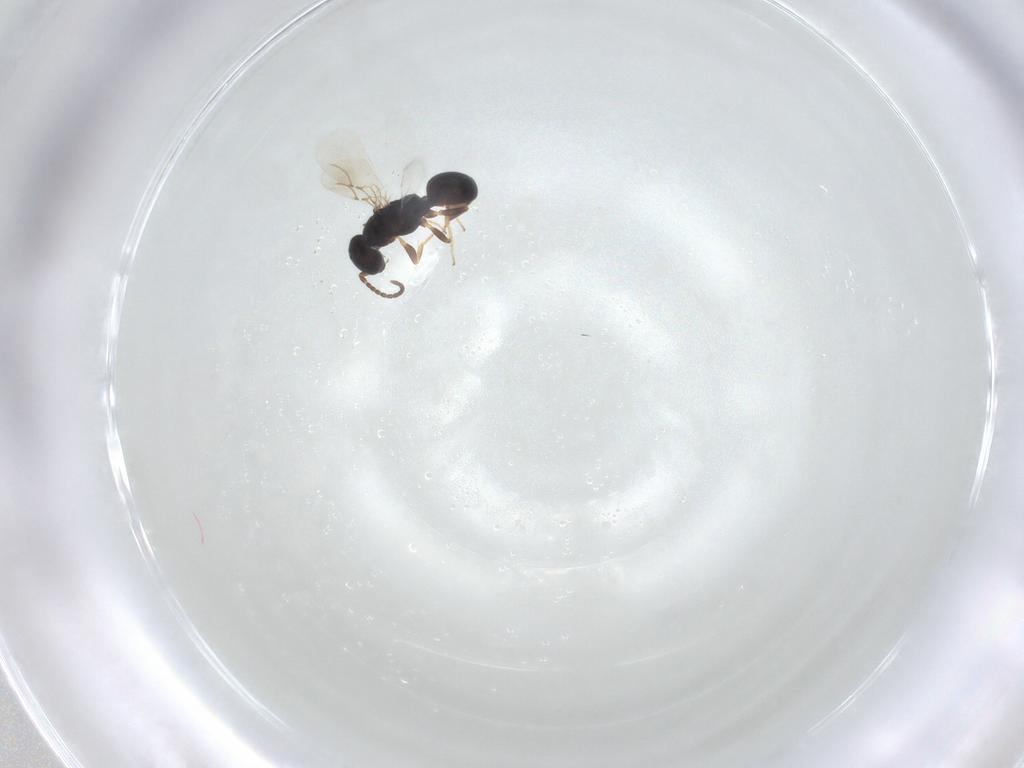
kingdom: Animalia
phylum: Arthropoda
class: Insecta
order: Hymenoptera
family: Bethylidae
